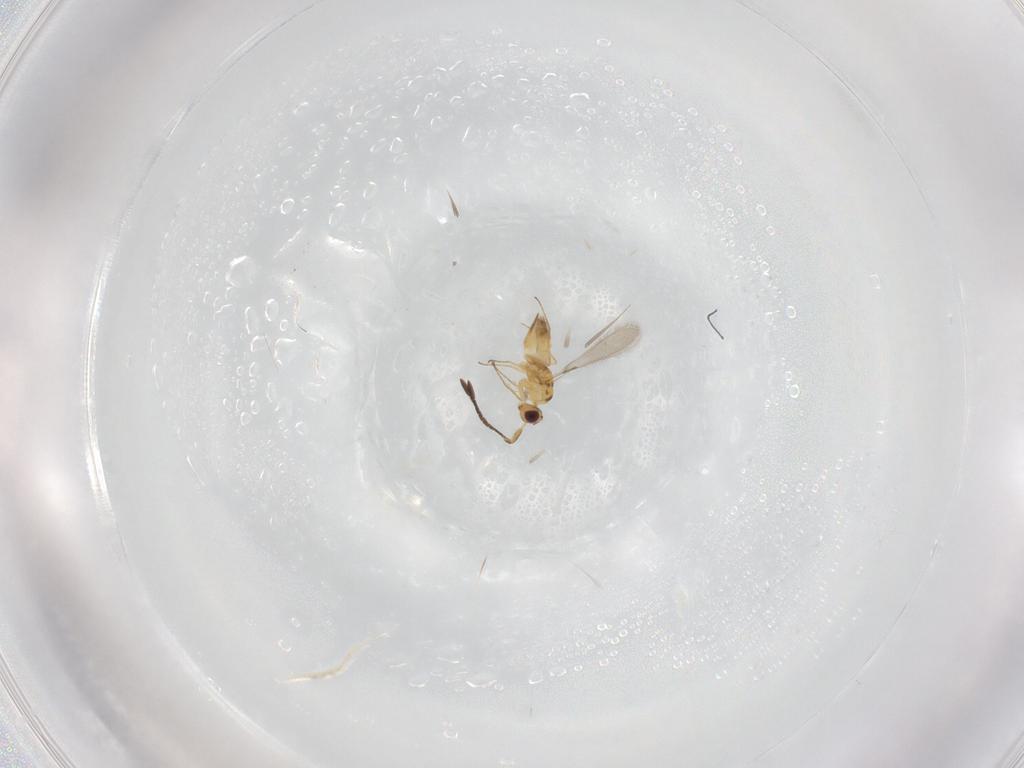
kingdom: Animalia
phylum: Arthropoda
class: Insecta
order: Hymenoptera
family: Mymaridae
